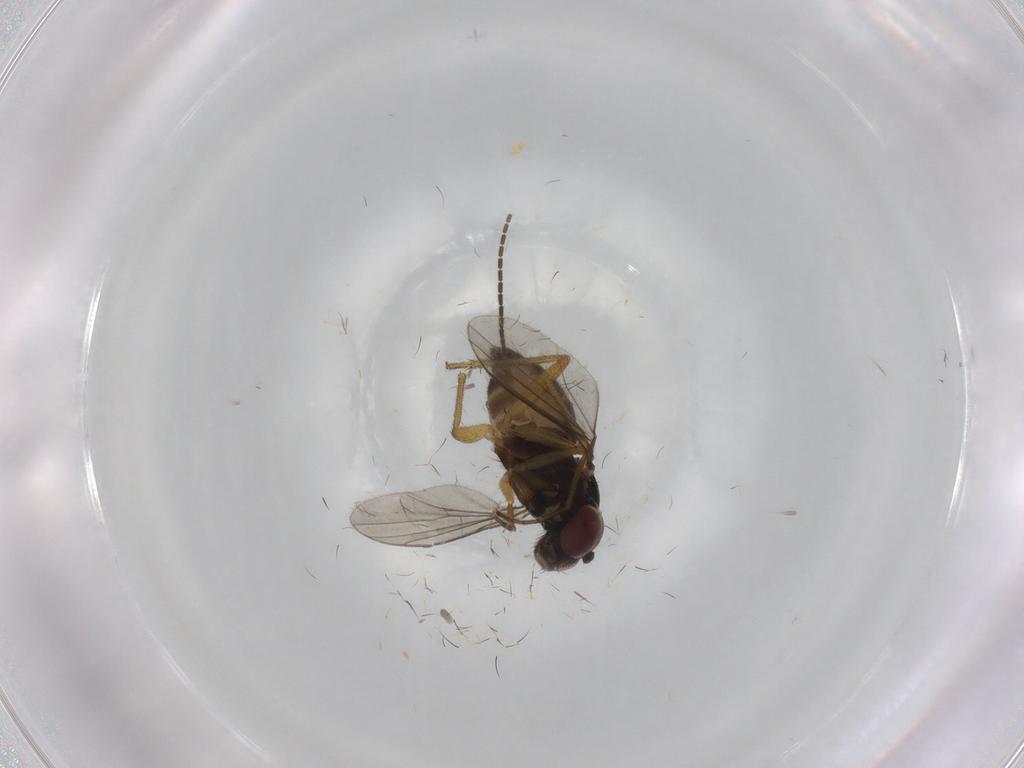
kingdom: Animalia
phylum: Arthropoda
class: Insecta
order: Diptera
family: Dolichopodidae
